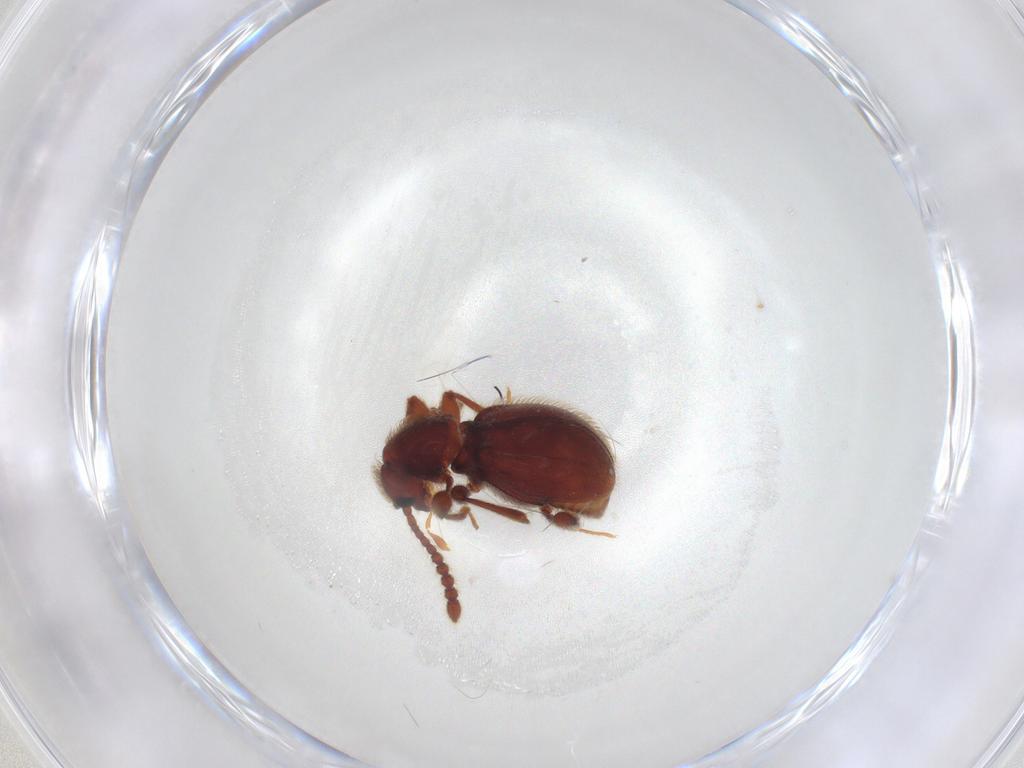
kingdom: Animalia
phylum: Arthropoda
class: Insecta
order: Coleoptera
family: Staphylinidae
